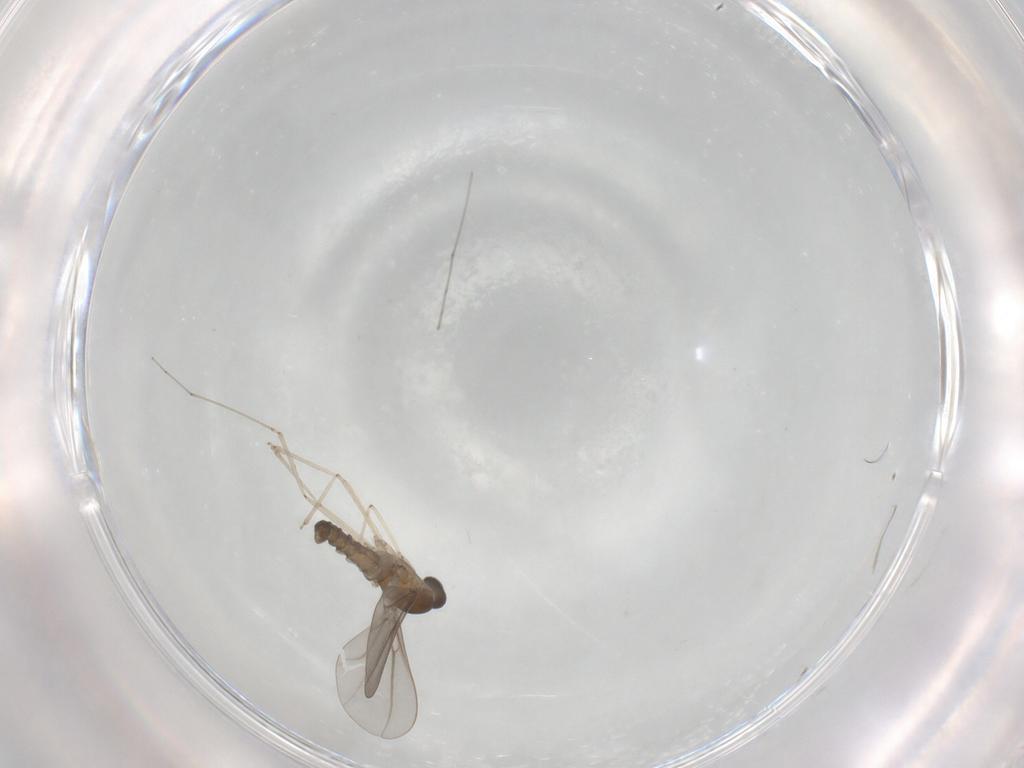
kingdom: Animalia
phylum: Arthropoda
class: Insecta
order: Diptera
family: Cecidomyiidae
